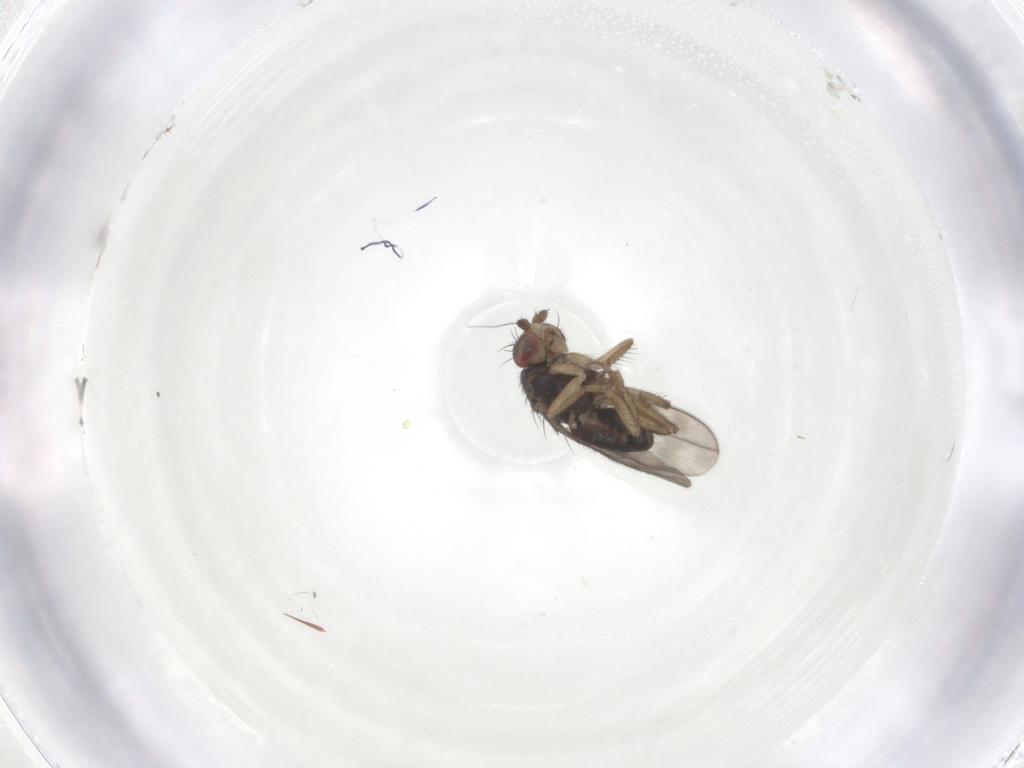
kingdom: Animalia
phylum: Arthropoda
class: Insecta
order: Diptera
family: Sphaeroceridae
